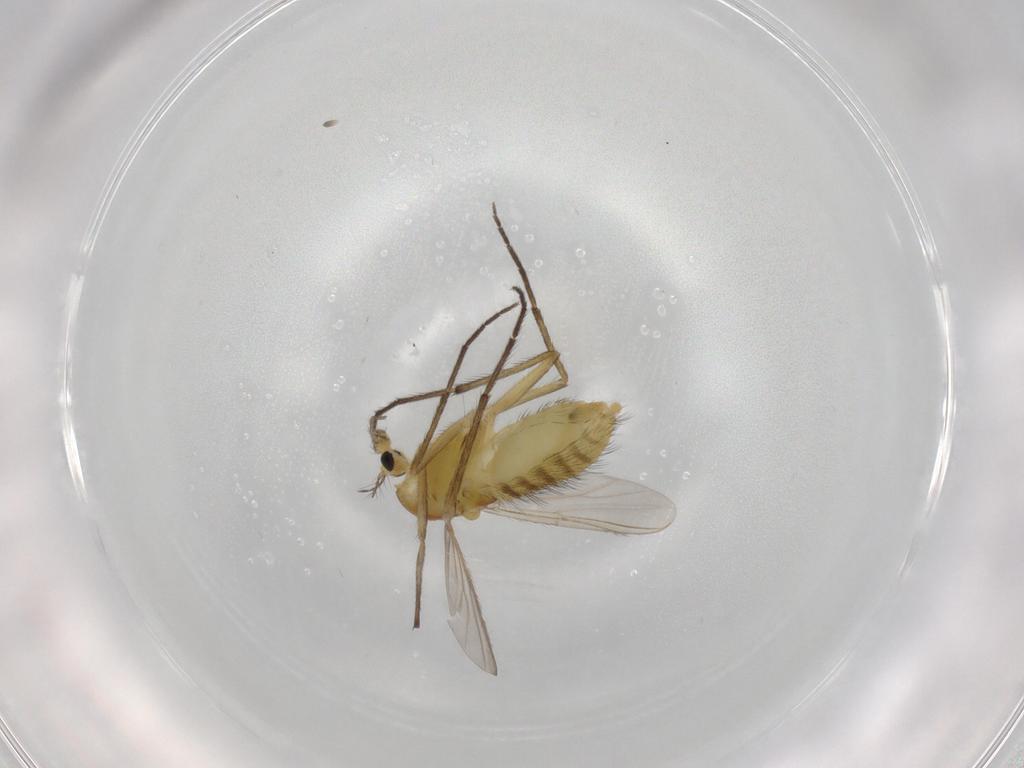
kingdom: Animalia
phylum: Arthropoda
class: Insecta
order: Diptera
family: Chironomidae
